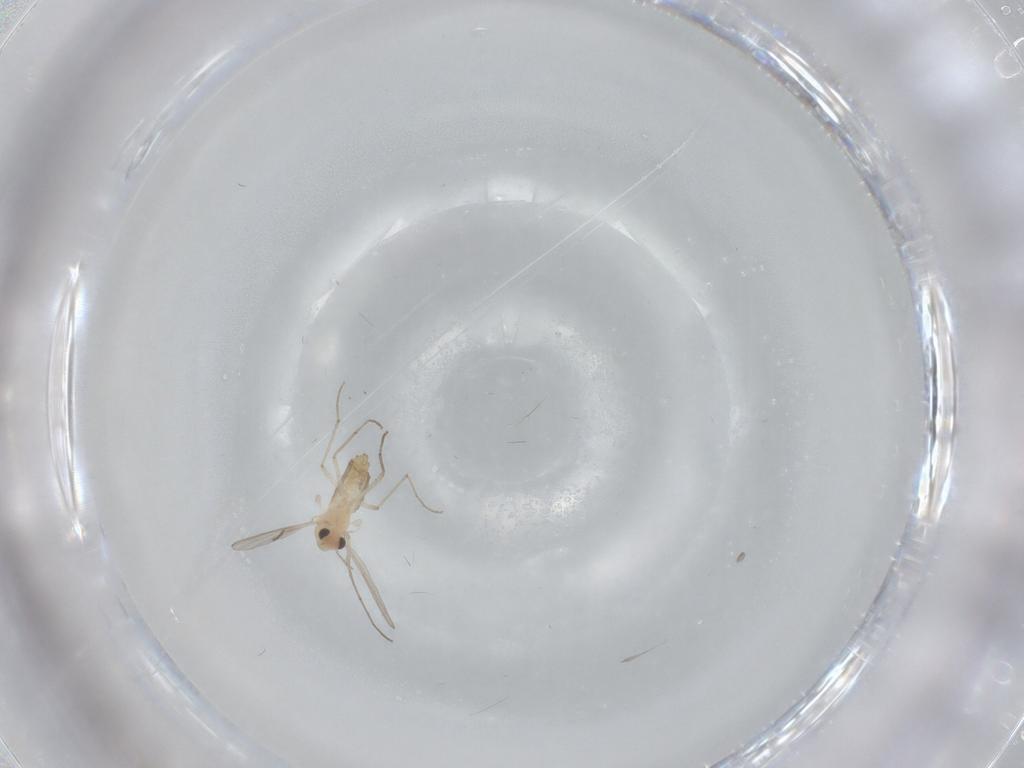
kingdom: Animalia
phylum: Arthropoda
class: Insecta
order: Diptera
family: Chironomidae
